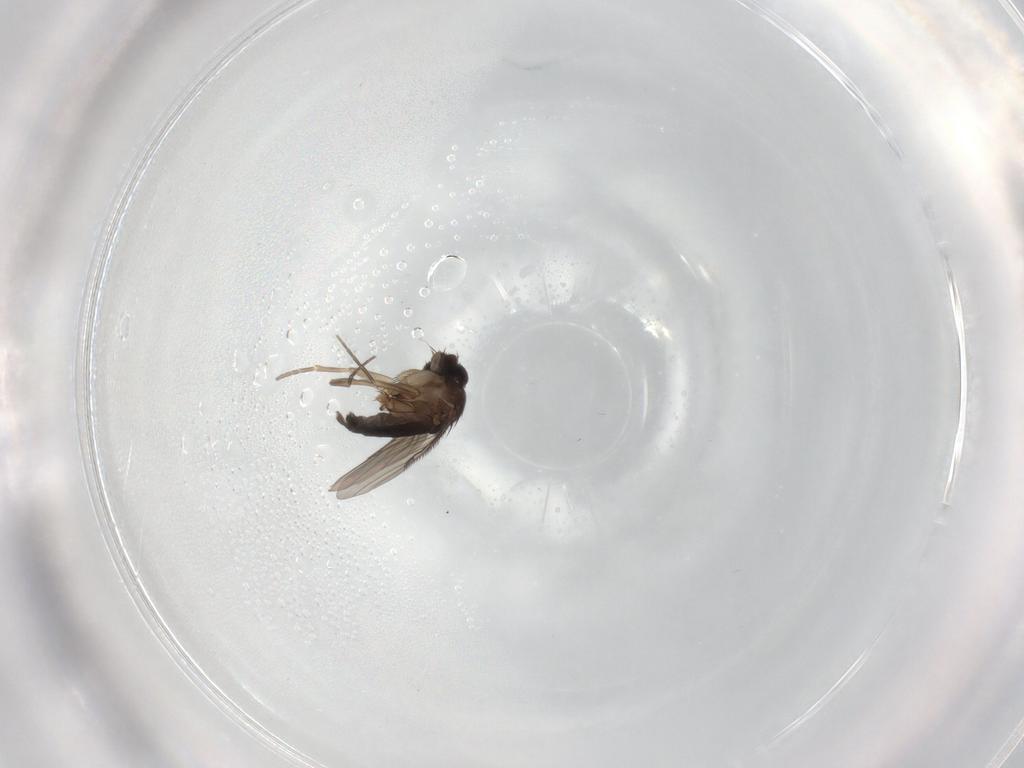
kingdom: Animalia
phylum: Arthropoda
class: Insecta
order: Diptera
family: Phoridae
